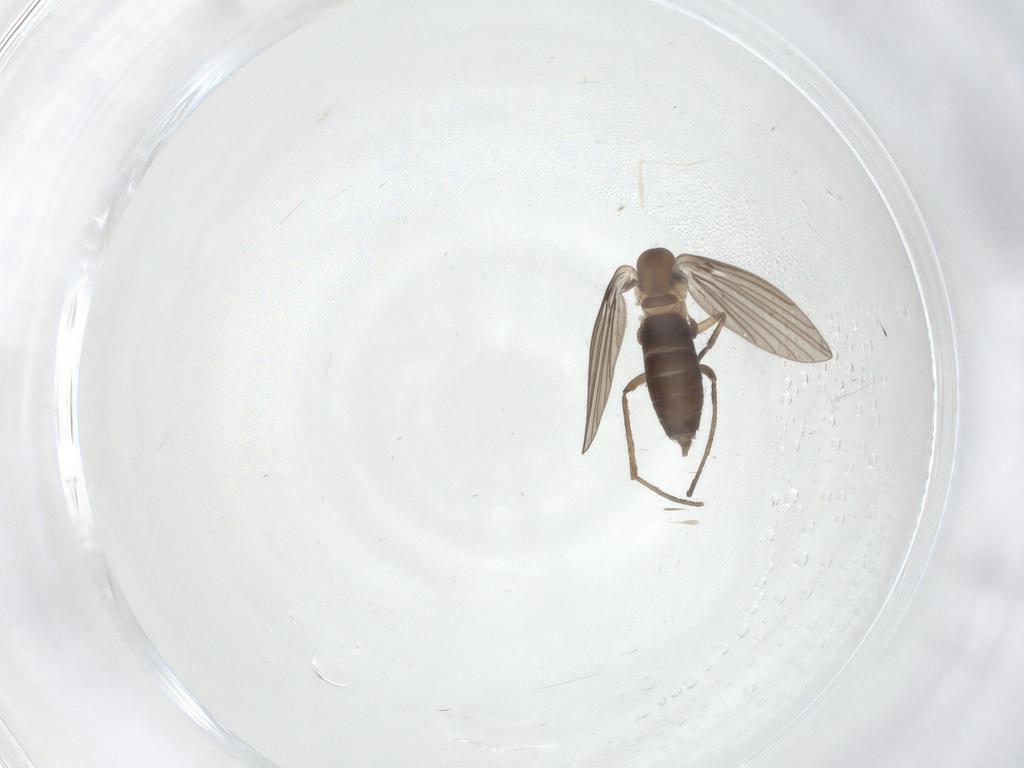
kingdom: Animalia
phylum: Arthropoda
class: Insecta
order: Diptera
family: Psychodidae
